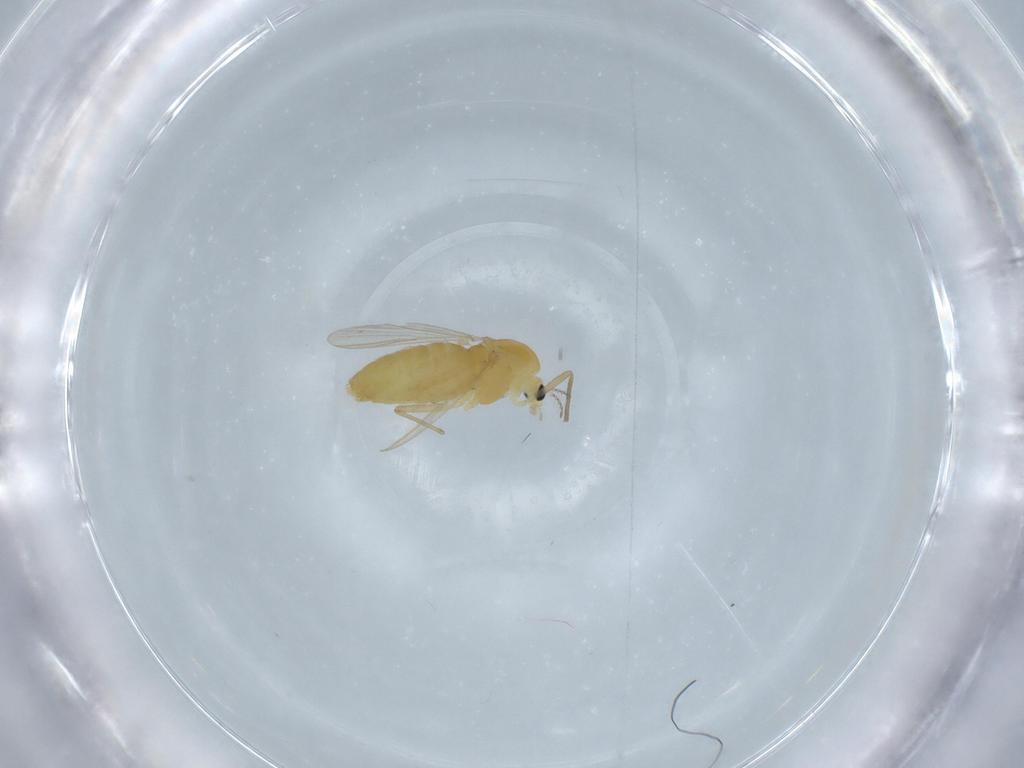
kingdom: Animalia
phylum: Arthropoda
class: Insecta
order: Diptera
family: Chironomidae
